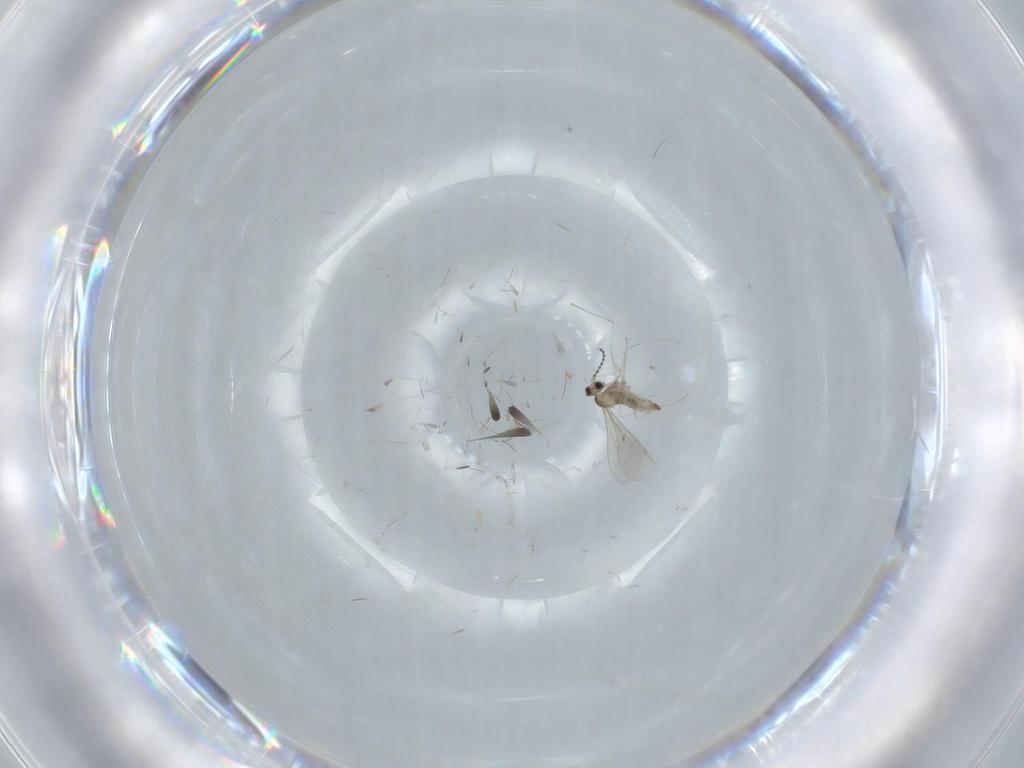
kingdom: Animalia
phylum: Arthropoda
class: Insecta
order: Diptera
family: Cecidomyiidae
